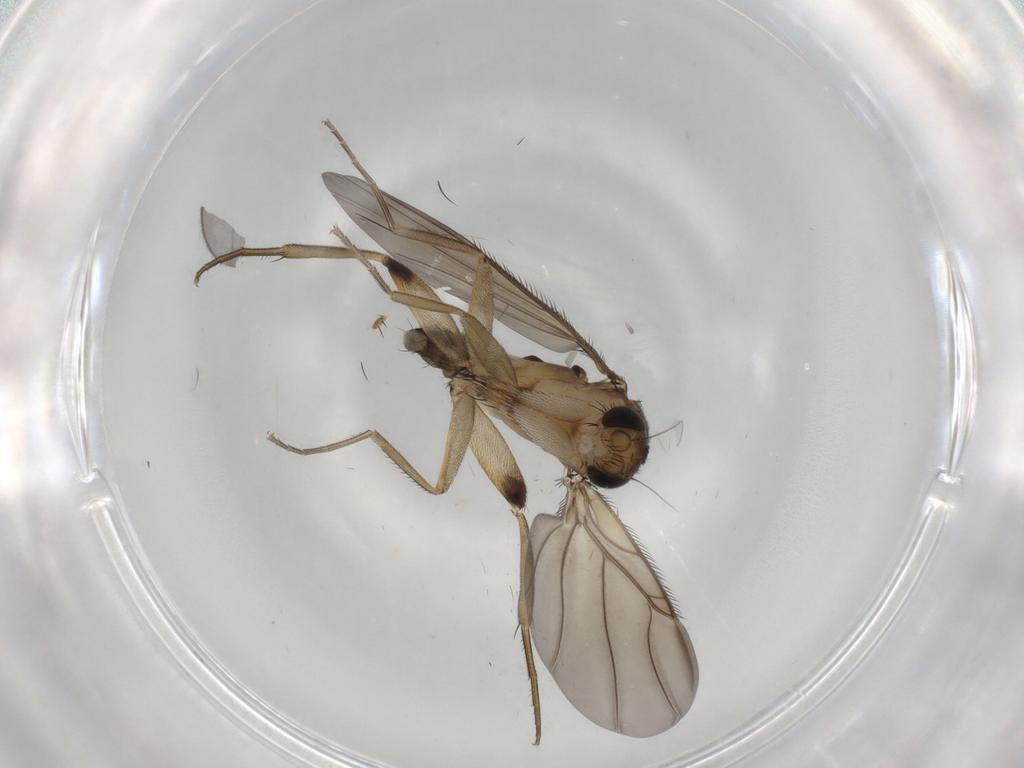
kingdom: Animalia
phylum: Arthropoda
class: Insecta
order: Diptera
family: Phoridae
